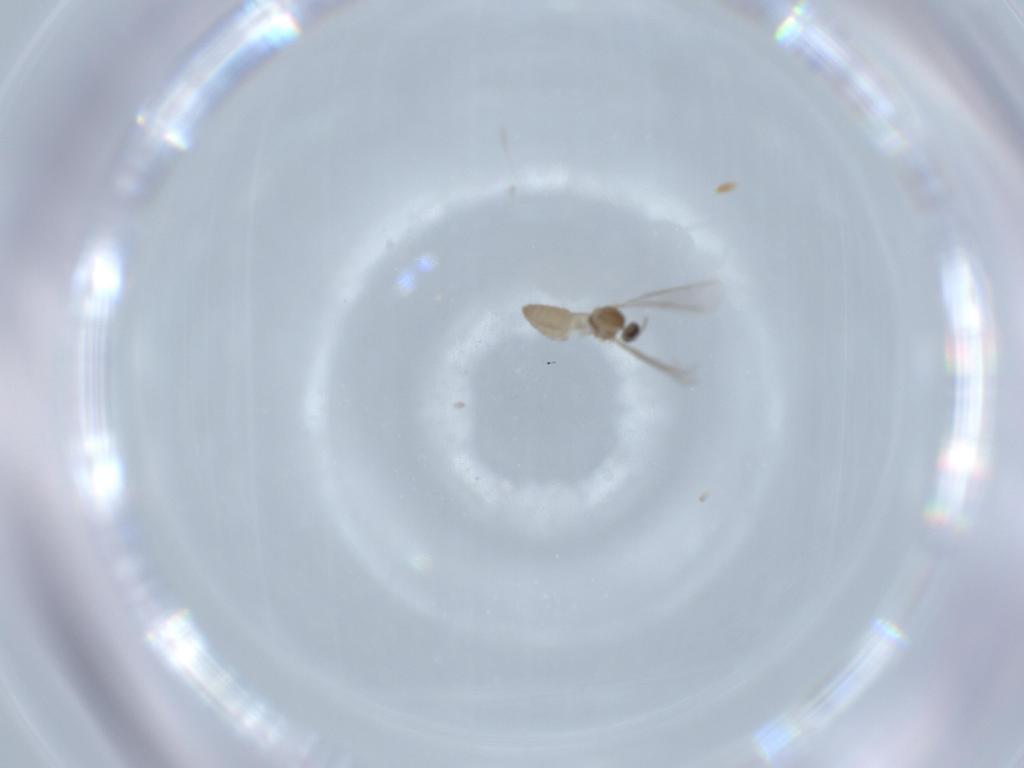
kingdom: Animalia
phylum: Arthropoda
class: Insecta
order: Diptera
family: Cecidomyiidae
